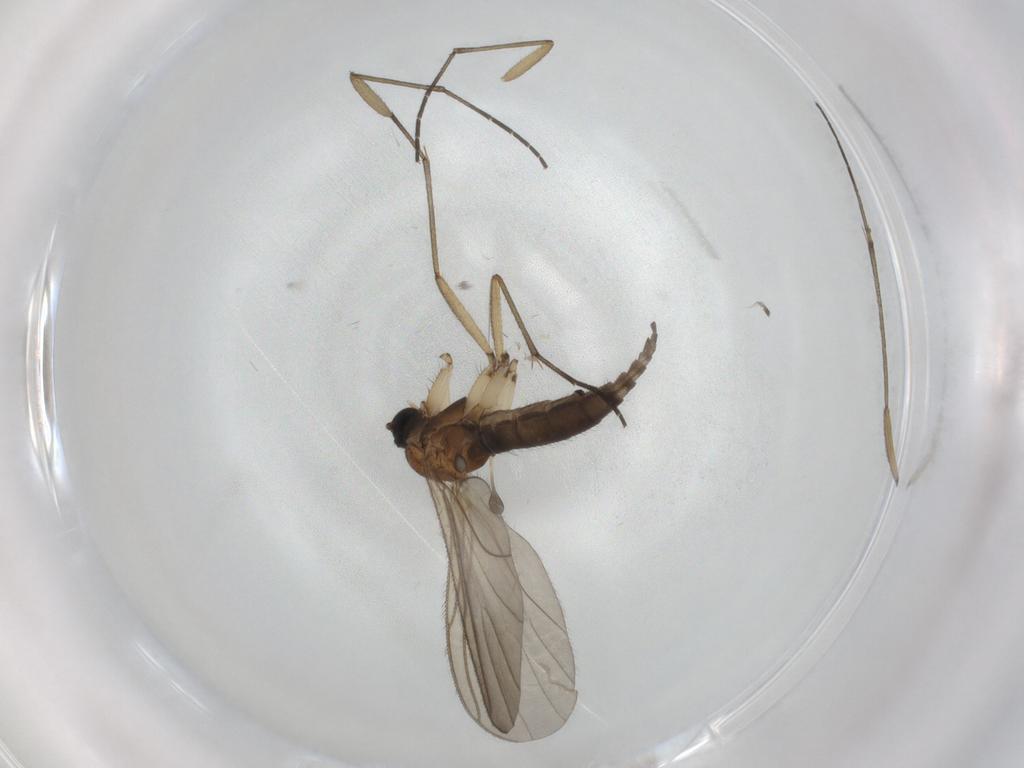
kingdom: Animalia
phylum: Arthropoda
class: Insecta
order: Diptera
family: Sciaridae
